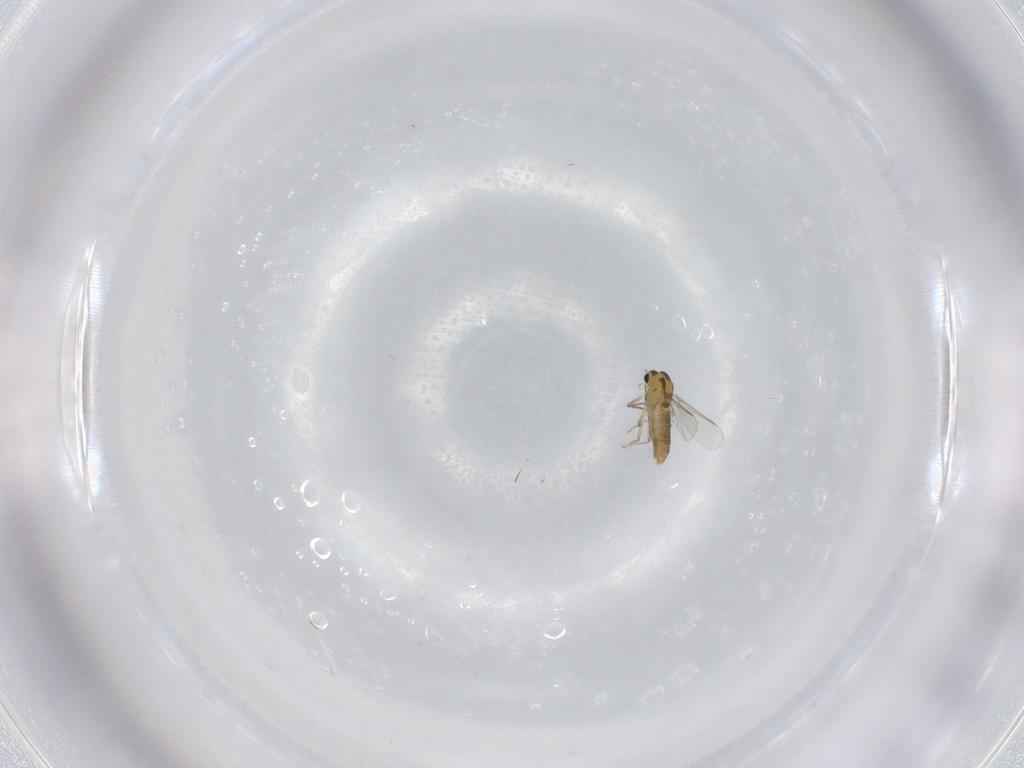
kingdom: Animalia
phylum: Arthropoda
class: Insecta
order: Diptera
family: Chironomidae
